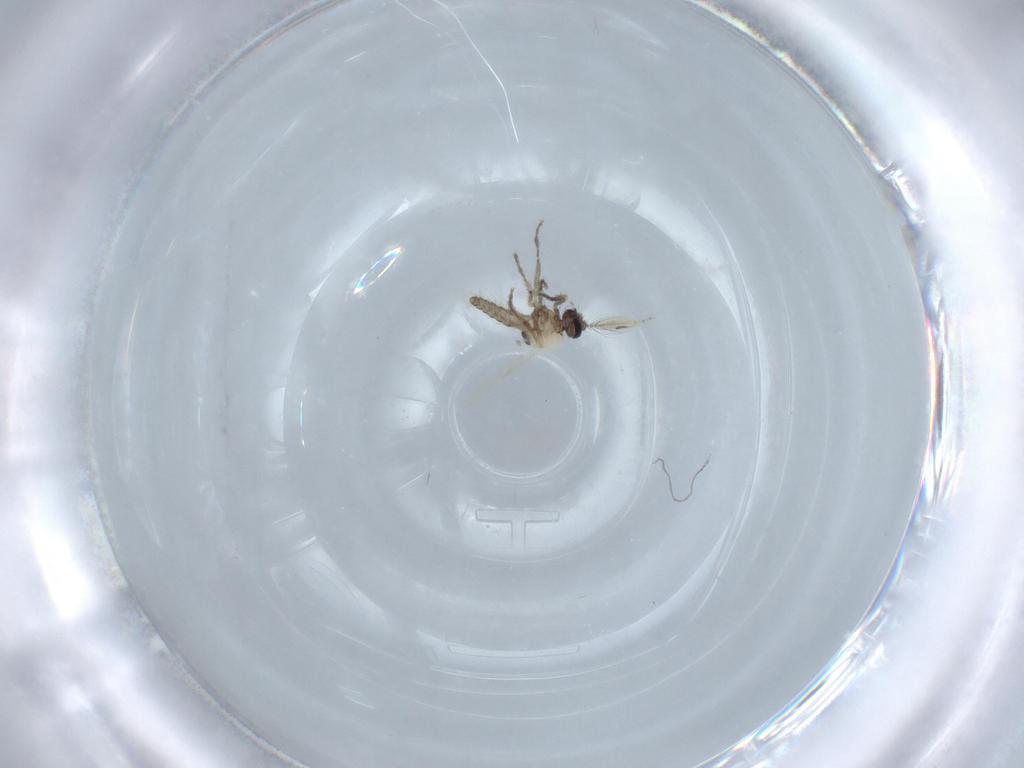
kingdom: Animalia
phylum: Arthropoda
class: Insecta
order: Diptera
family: Ceratopogonidae
